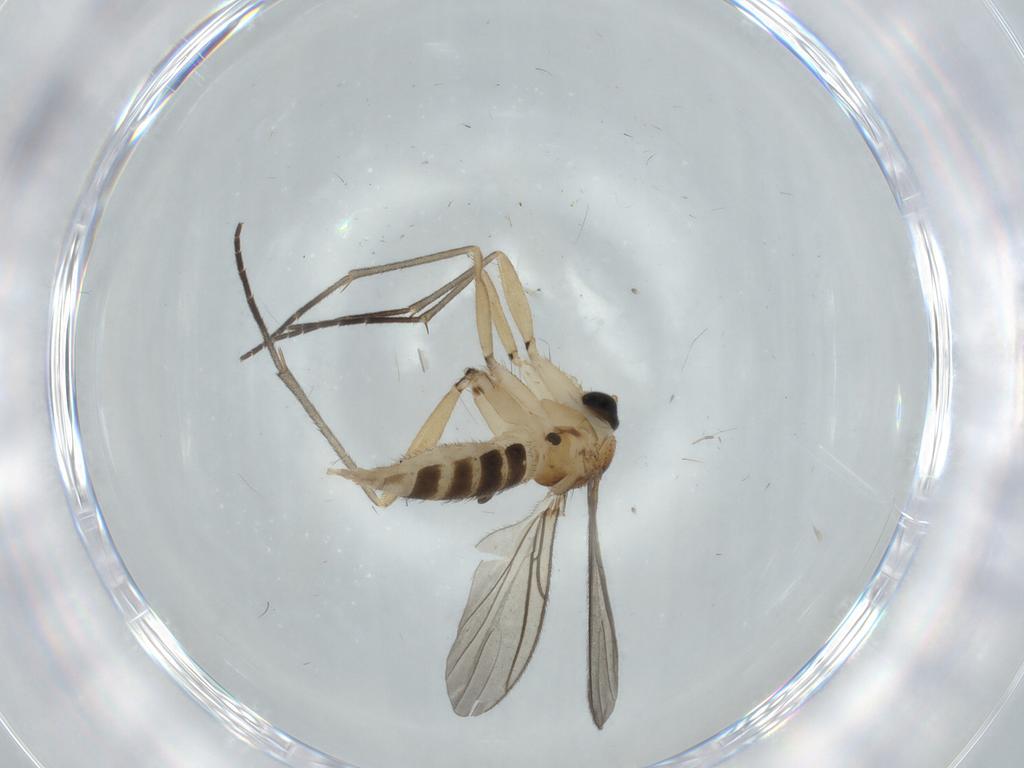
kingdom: Animalia
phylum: Arthropoda
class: Insecta
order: Diptera
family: Sciaridae
